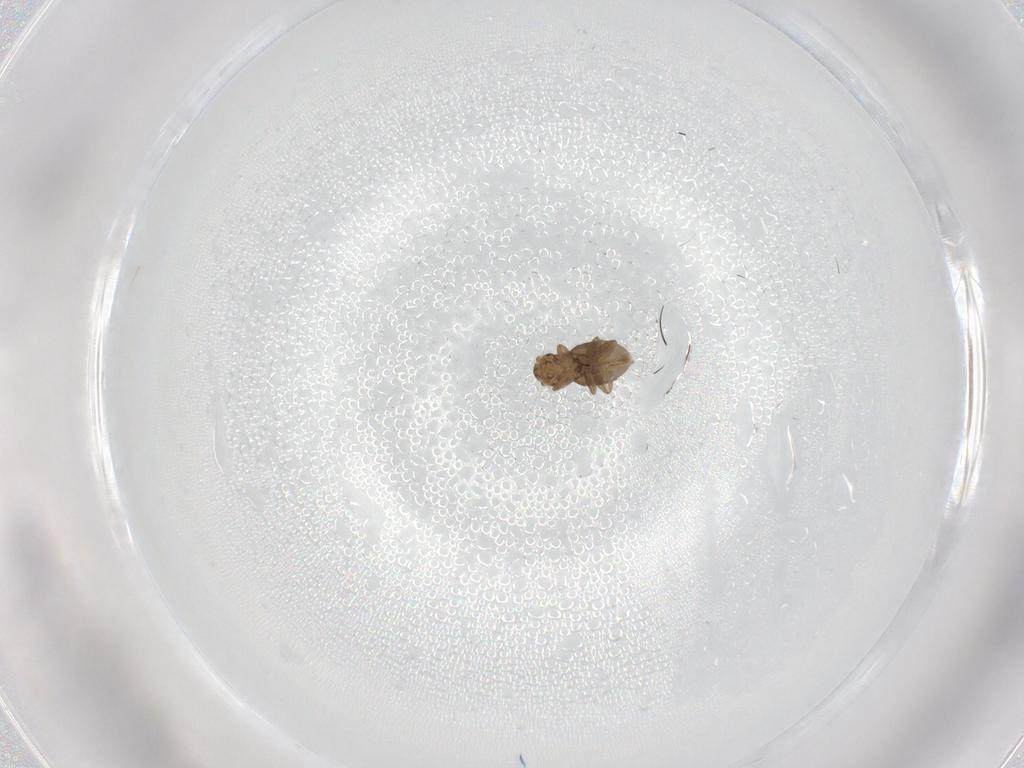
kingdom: Animalia
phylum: Arthropoda
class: Insecta
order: Diptera
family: Phoridae
